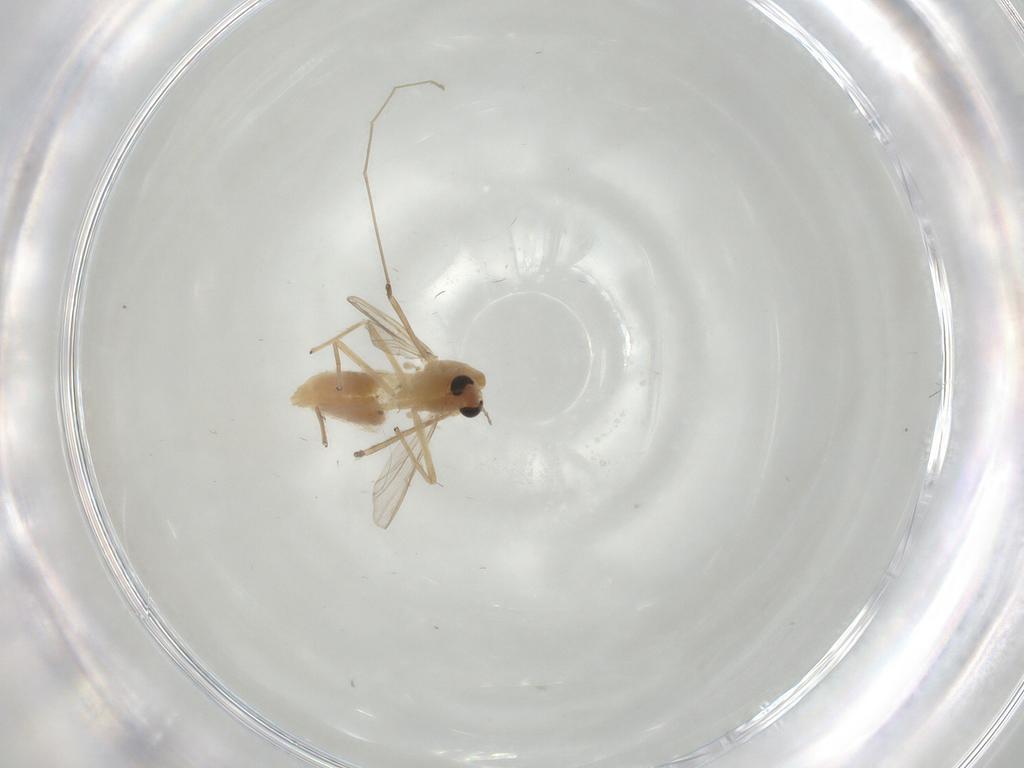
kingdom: Animalia
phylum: Arthropoda
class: Insecta
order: Diptera
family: Chironomidae
